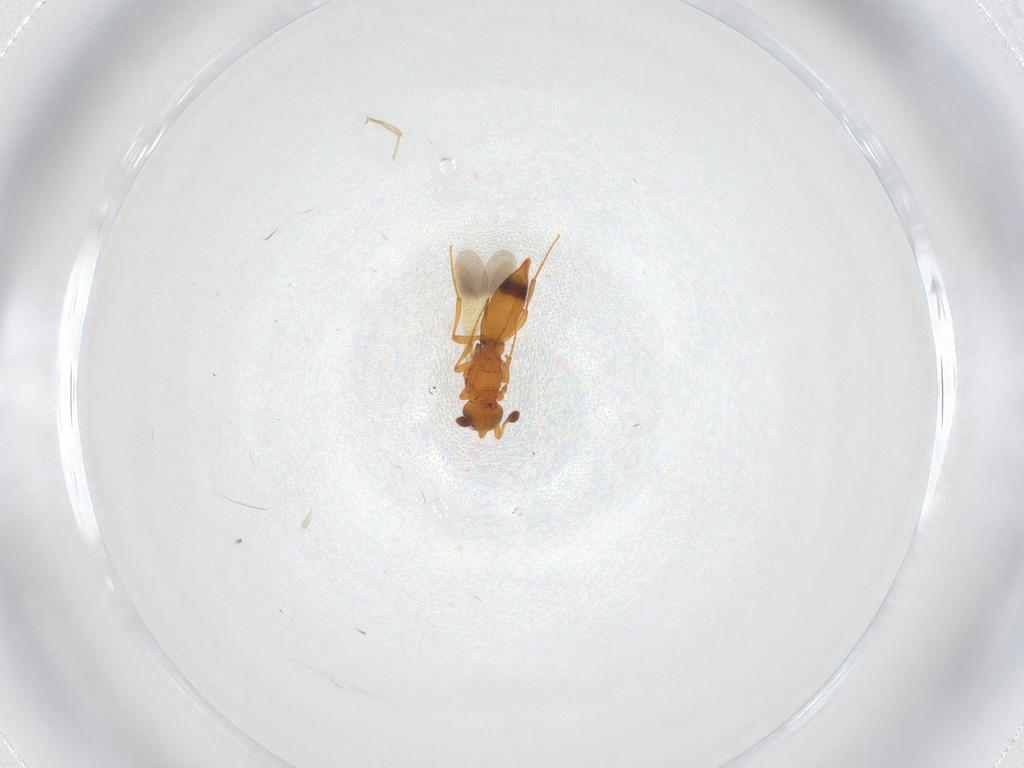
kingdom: Animalia
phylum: Arthropoda
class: Insecta
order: Hymenoptera
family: Platygastridae
